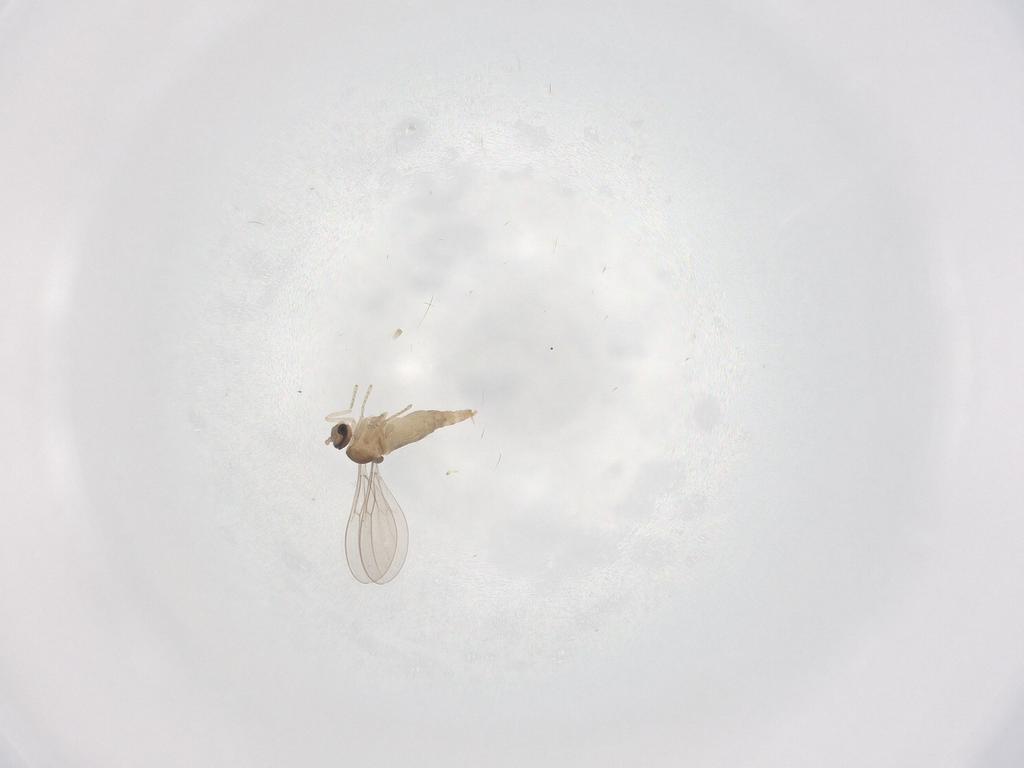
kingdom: Animalia
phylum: Arthropoda
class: Insecta
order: Diptera
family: Cecidomyiidae
